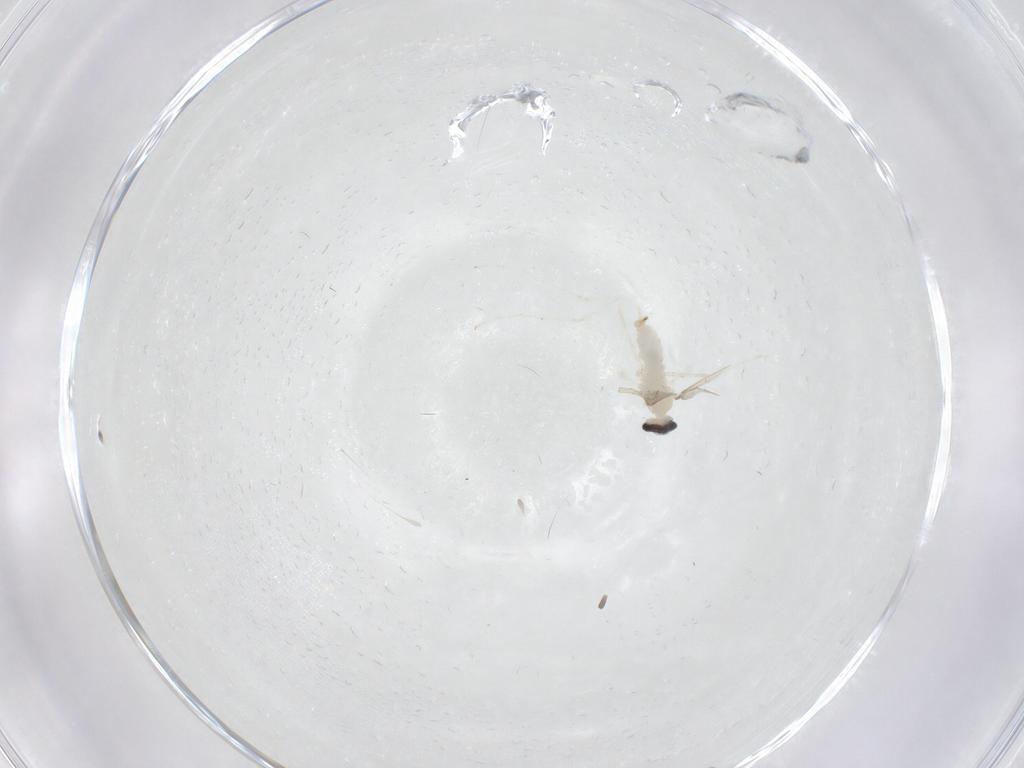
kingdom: Animalia
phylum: Arthropoda
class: Insecta
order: Diptera
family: Cecidomyiidae
